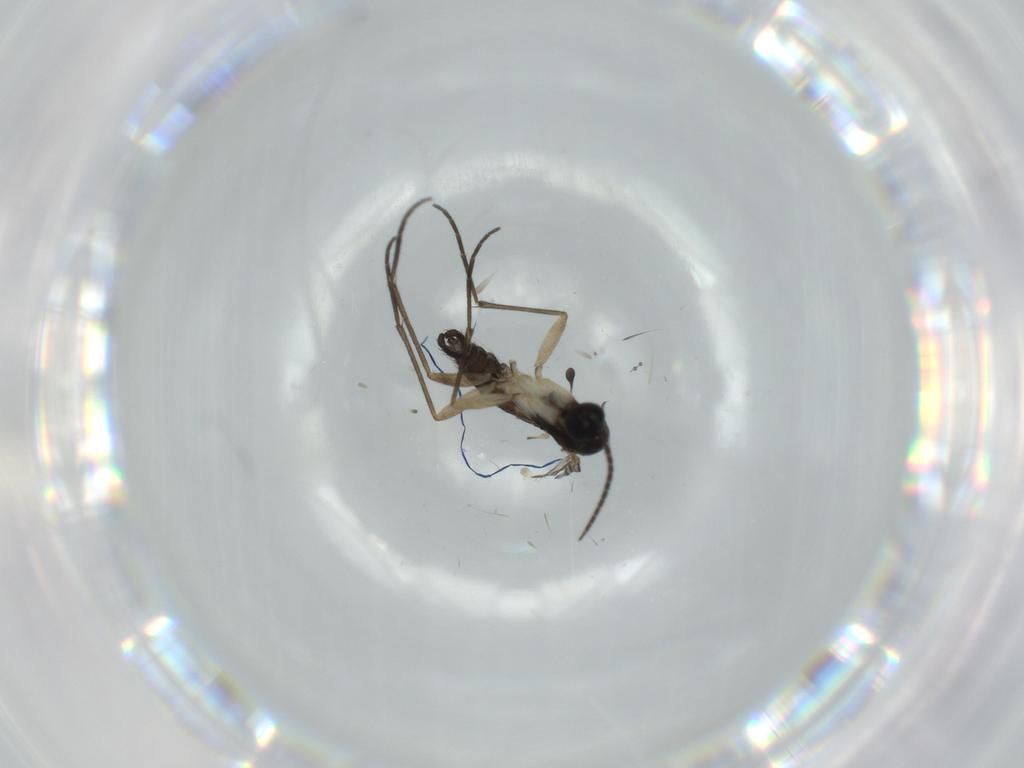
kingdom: Animalia
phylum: Arthropoda
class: Insecta
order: Diptera
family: Sciaridae
